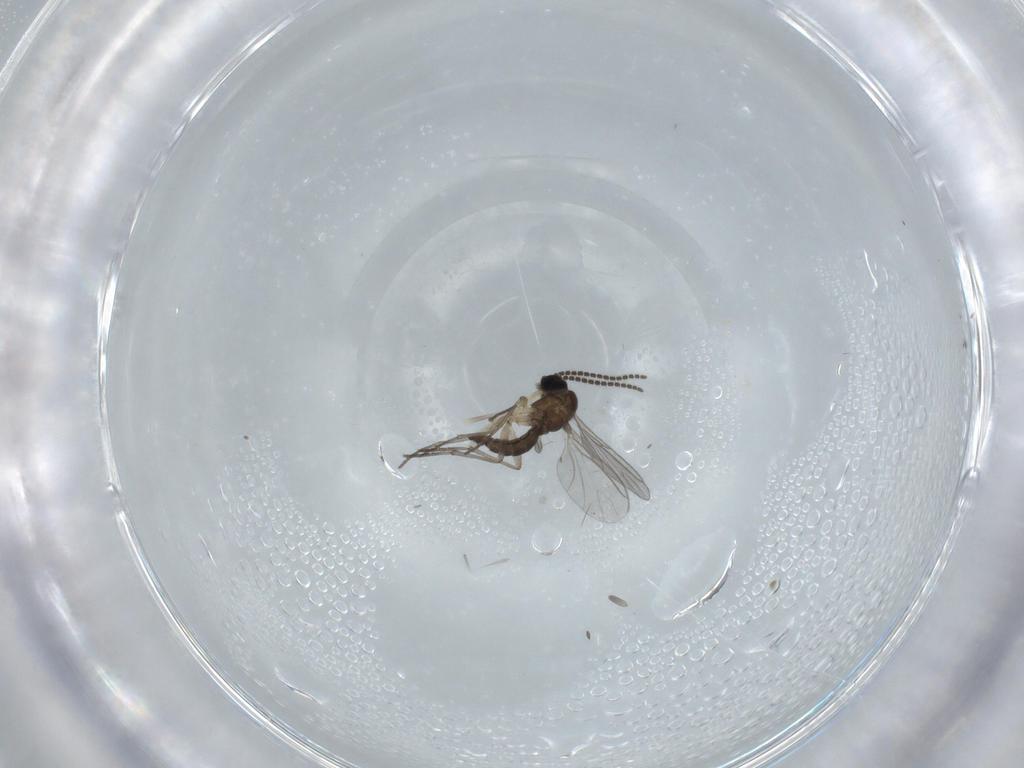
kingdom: Animalia
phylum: Arthropoda
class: Insecta
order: Diptera
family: Sciaridae
